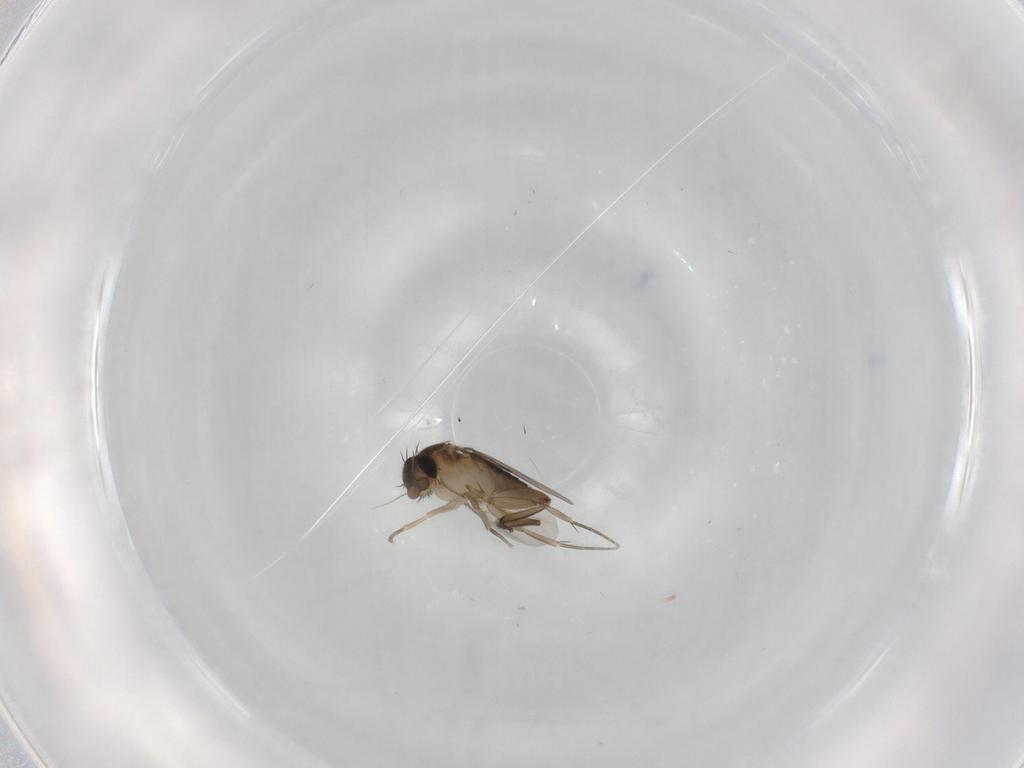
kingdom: Animalia
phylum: Arthropoda
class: Insecta
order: Diptera
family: Phoridae
